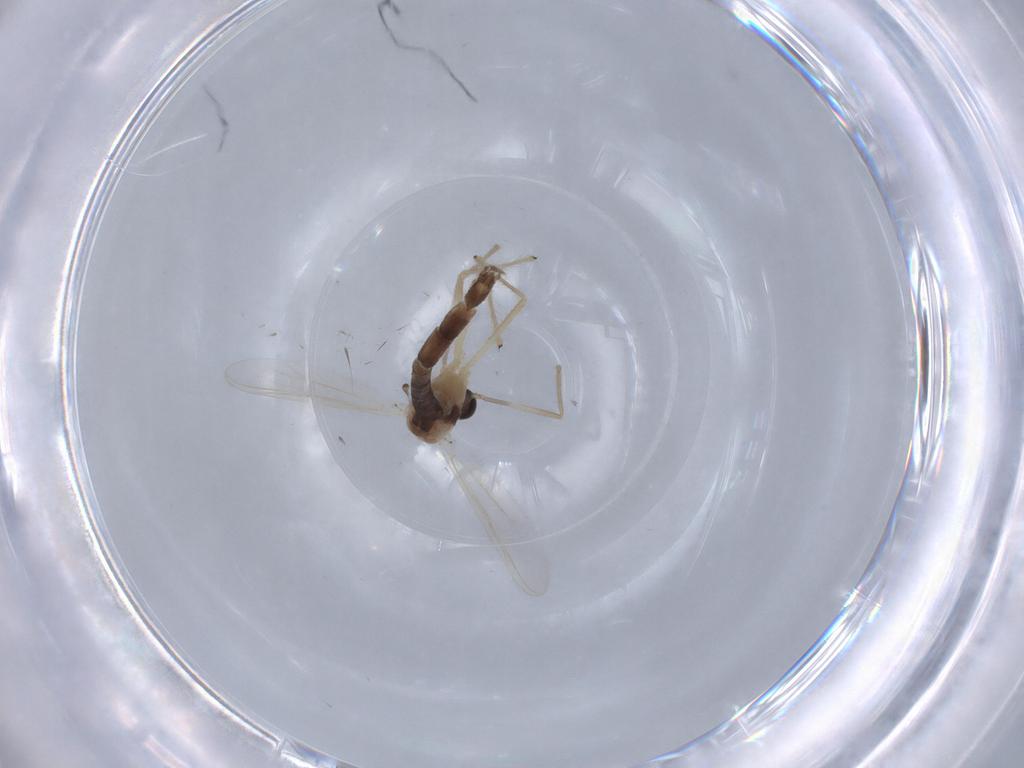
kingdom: Animalia
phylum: Arthropoda
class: Insecta
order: Diptera
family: Chironomidae
